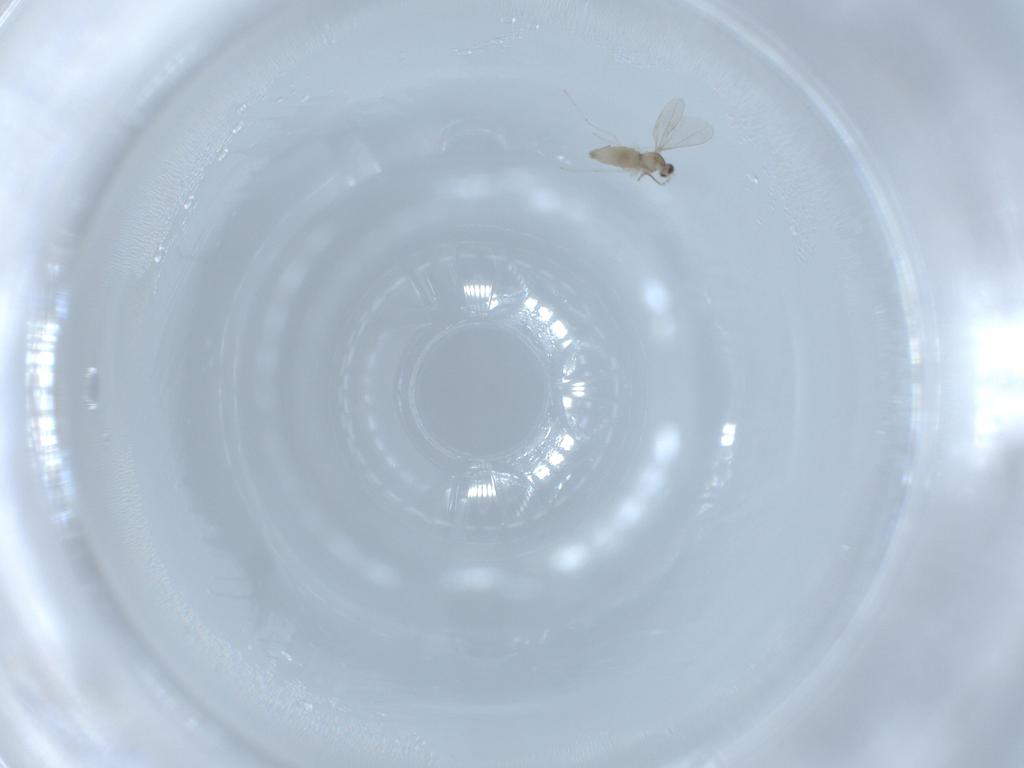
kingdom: Animalia
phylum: Arthropoda
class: Insecta
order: Diptera
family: Cecidomyiidae
